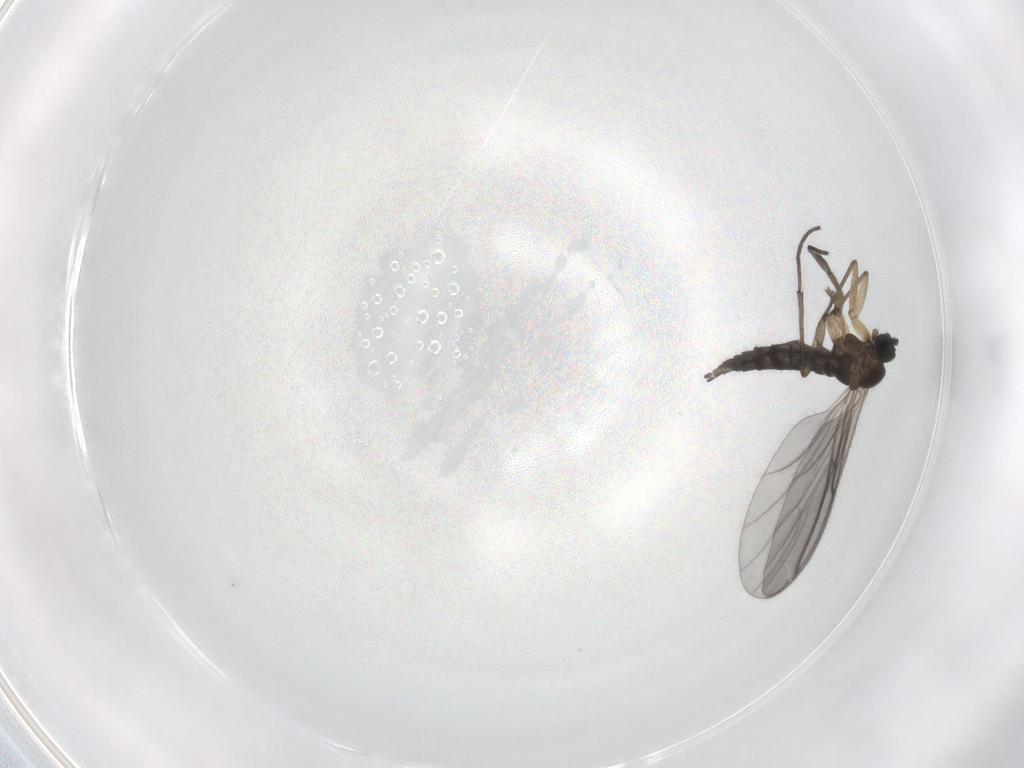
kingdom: Animalia
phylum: Arthropoda
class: Insecta
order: Diptera
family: Sciaridae
